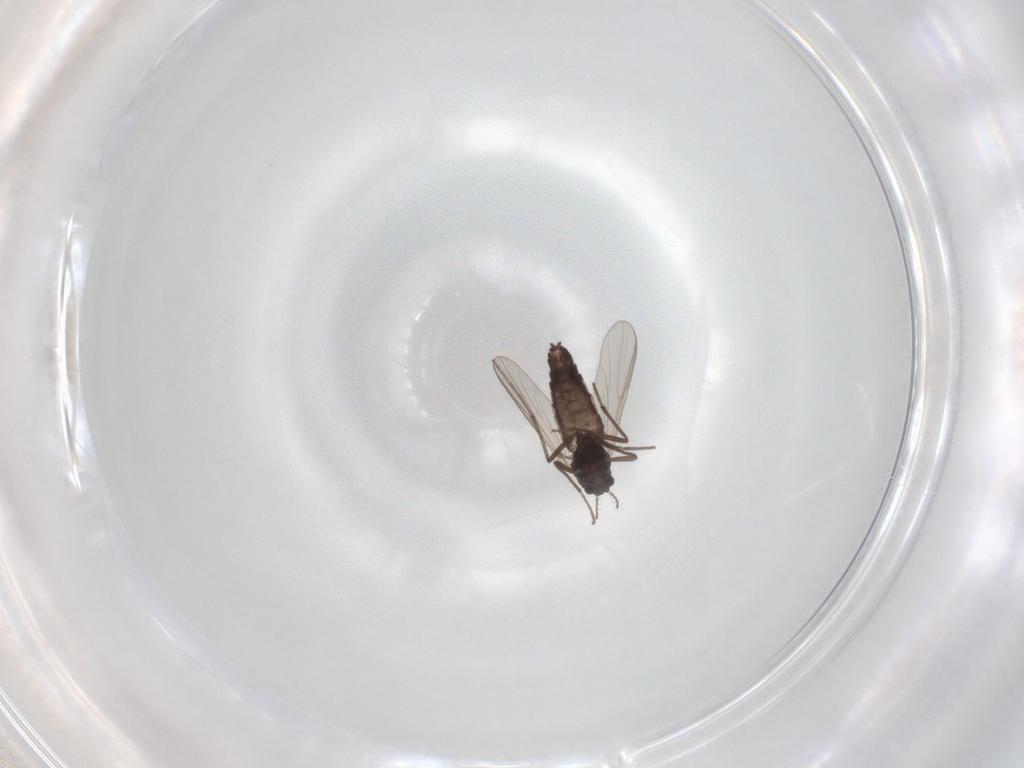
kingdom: Animalia
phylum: Arthropoda
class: Insecta
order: Diptera
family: Chironomidae
